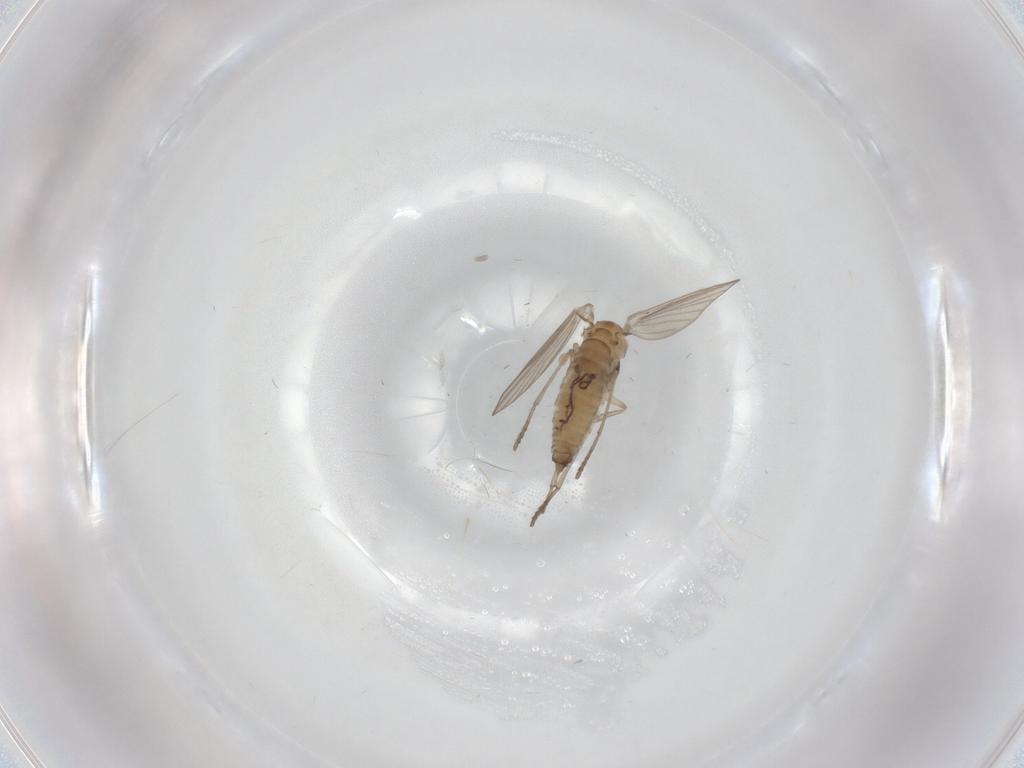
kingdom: Animalia
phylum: Arthropoda
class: Insecta
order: Diptera
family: Psychodidae
